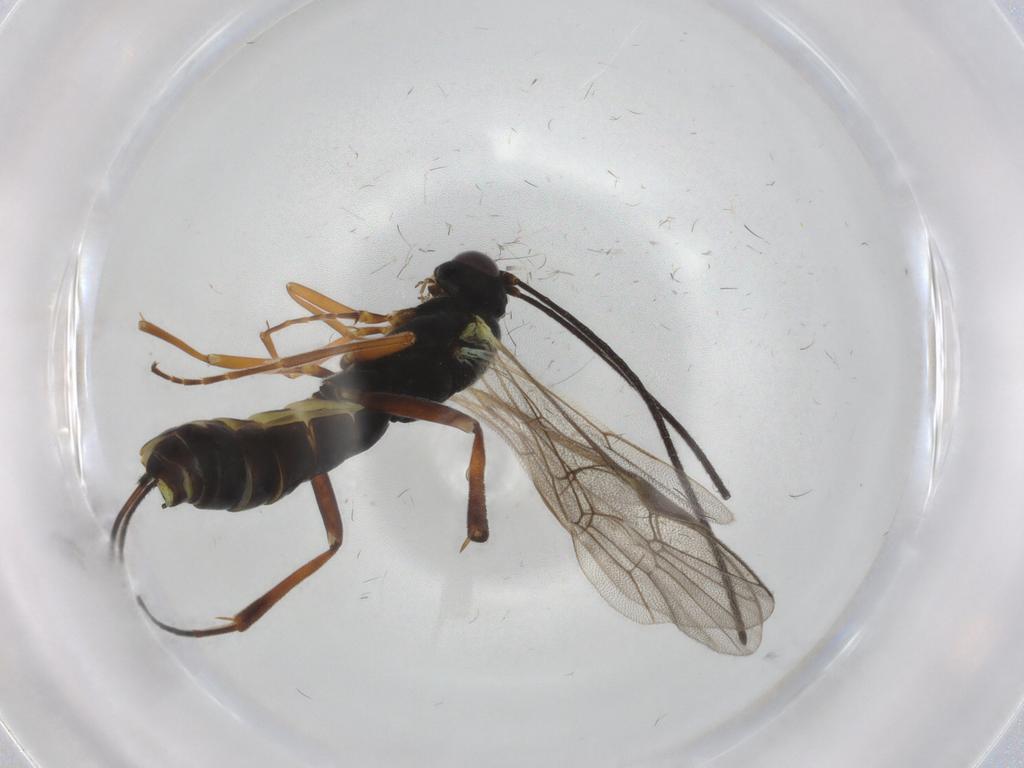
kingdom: Animalia
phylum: Arthropoda
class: Insecta
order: Hymenoptera
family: Ichneumonidae
